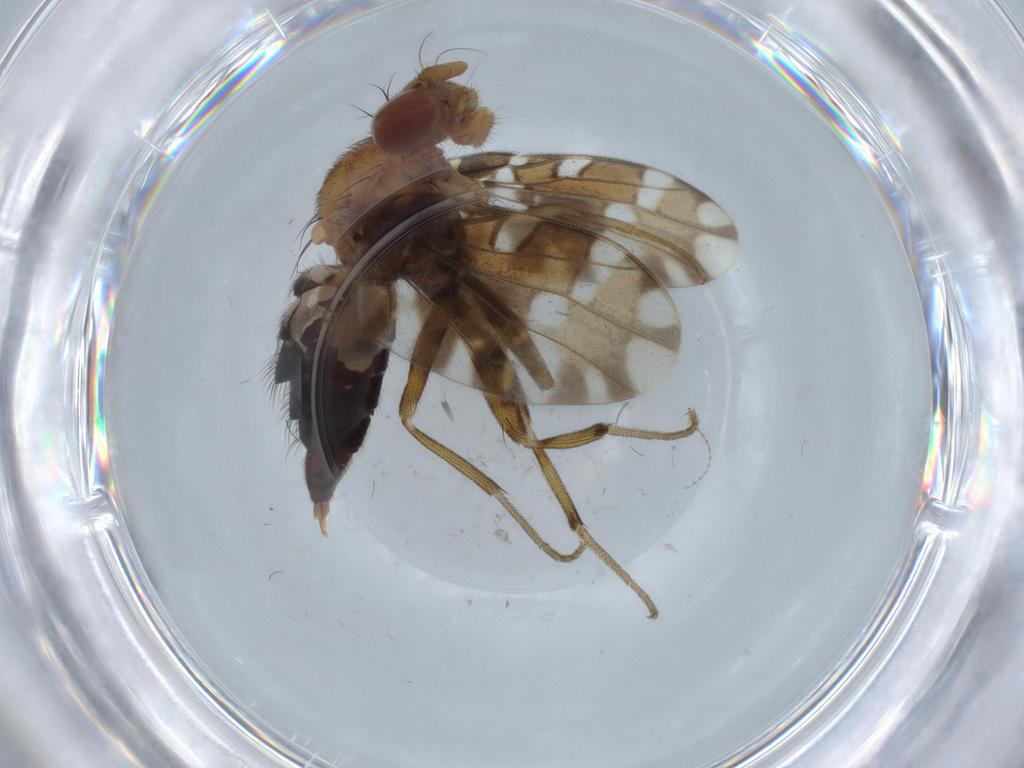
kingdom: Animalia
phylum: Arthropoda
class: Insecta
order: Diptera
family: Ulidiidae
